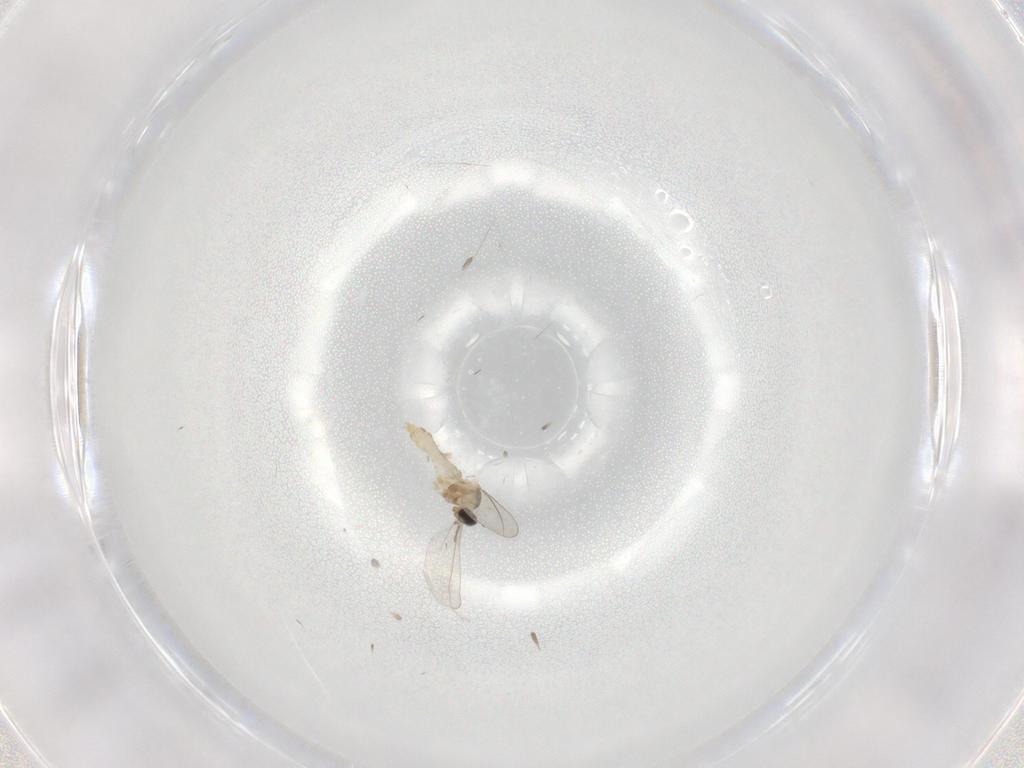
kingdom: Animalia
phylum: Arthropoda
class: Insecta
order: Diptera
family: Cecidomyiidae
